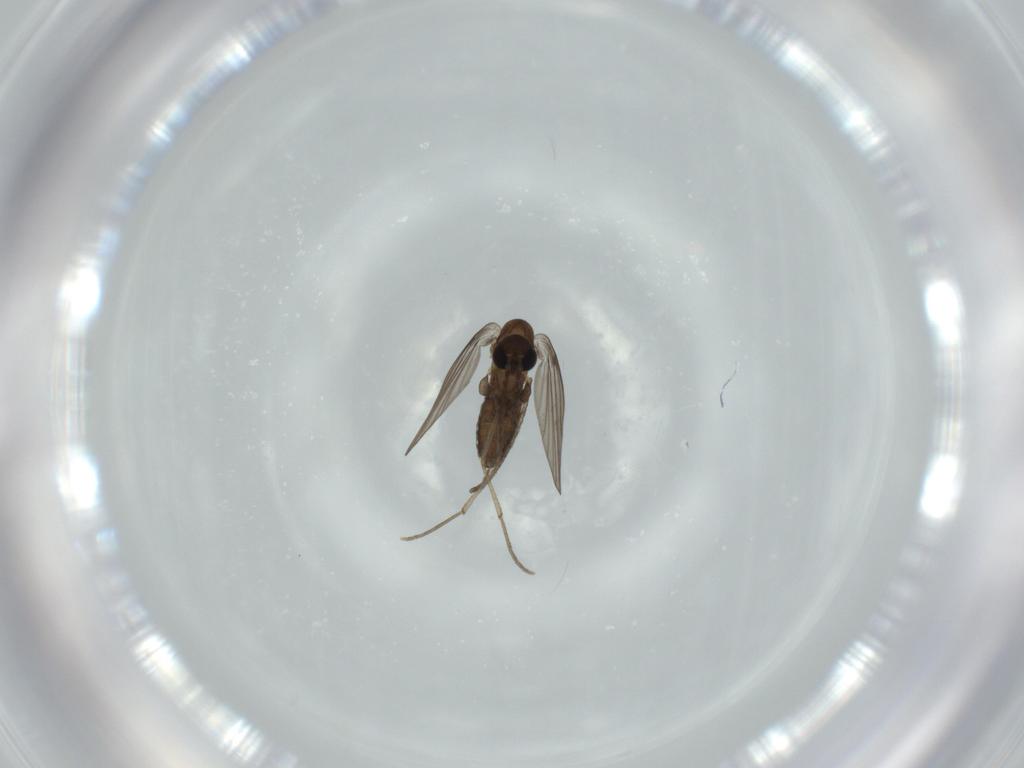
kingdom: Animalia
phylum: Arthropoda
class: Insecta
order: Diptera
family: Psychodidae
